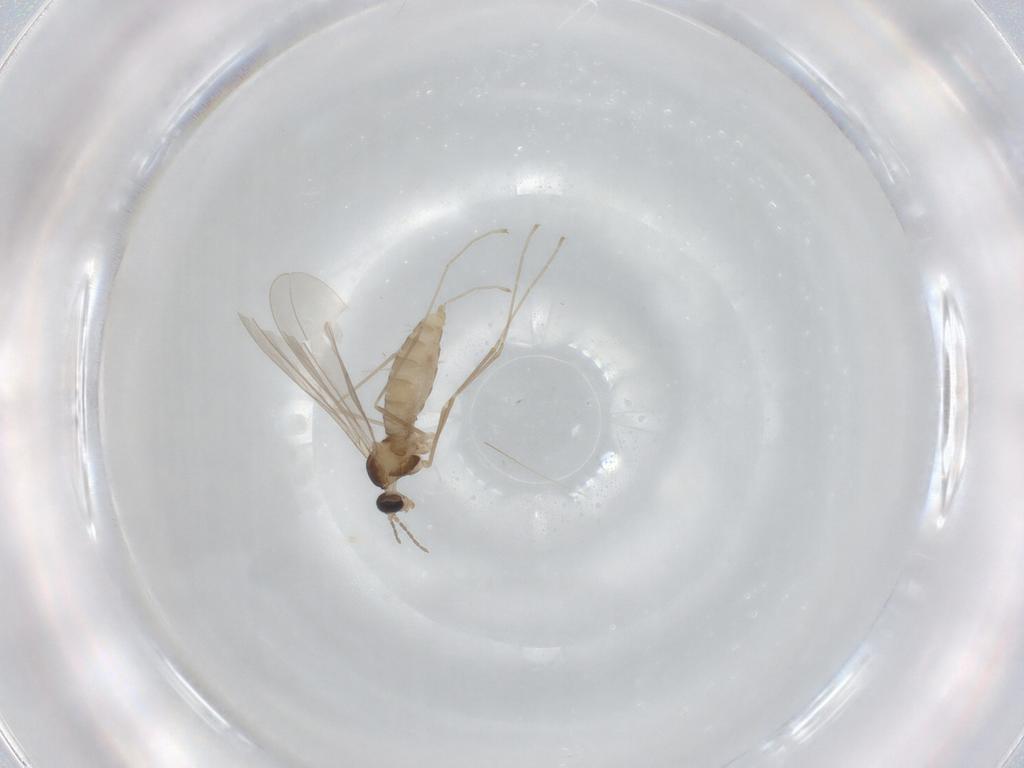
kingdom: Animalia
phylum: Arthropoda
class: Insecta
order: Diptera
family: Cecidomyiidae
